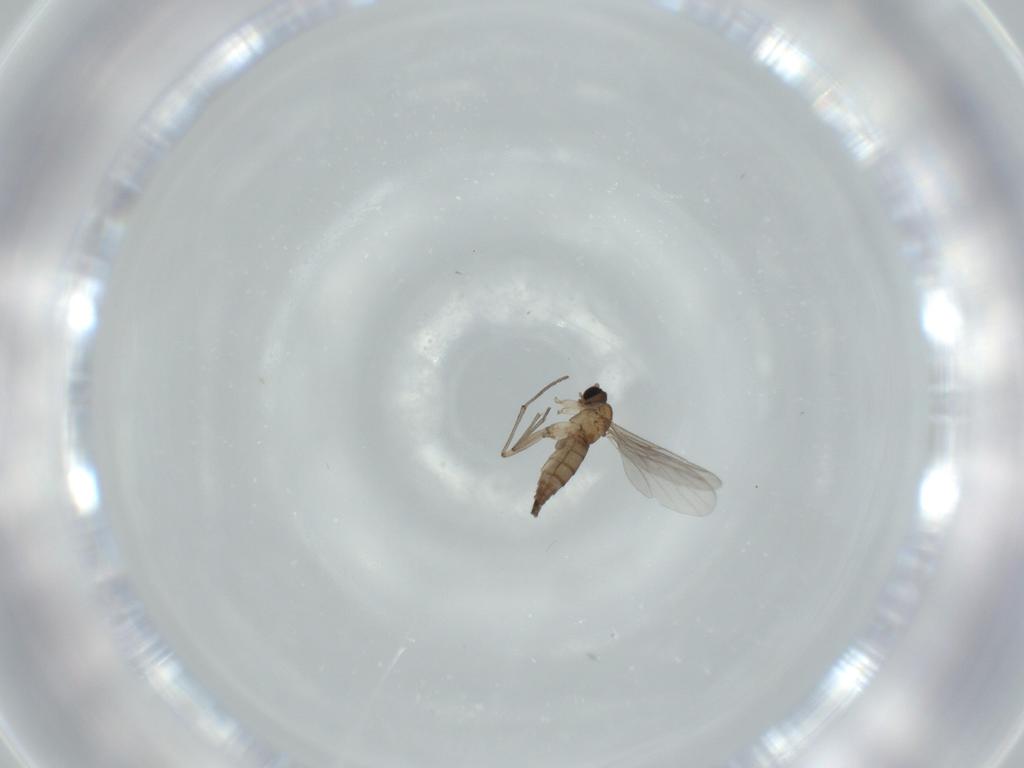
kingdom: Animalia
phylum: Arthropoda
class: Insecta
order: Diptera
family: Sciaridae
